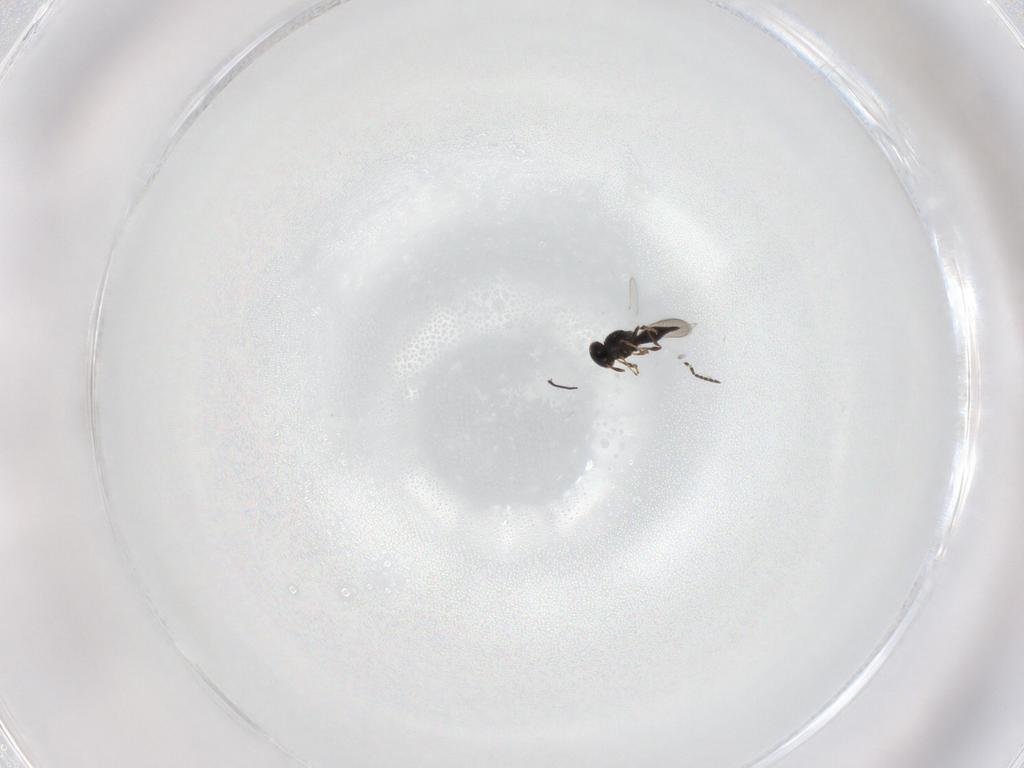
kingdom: Animalia
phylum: Arthropoda
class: Insecta
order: Hymenoptera
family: Platygastridae
